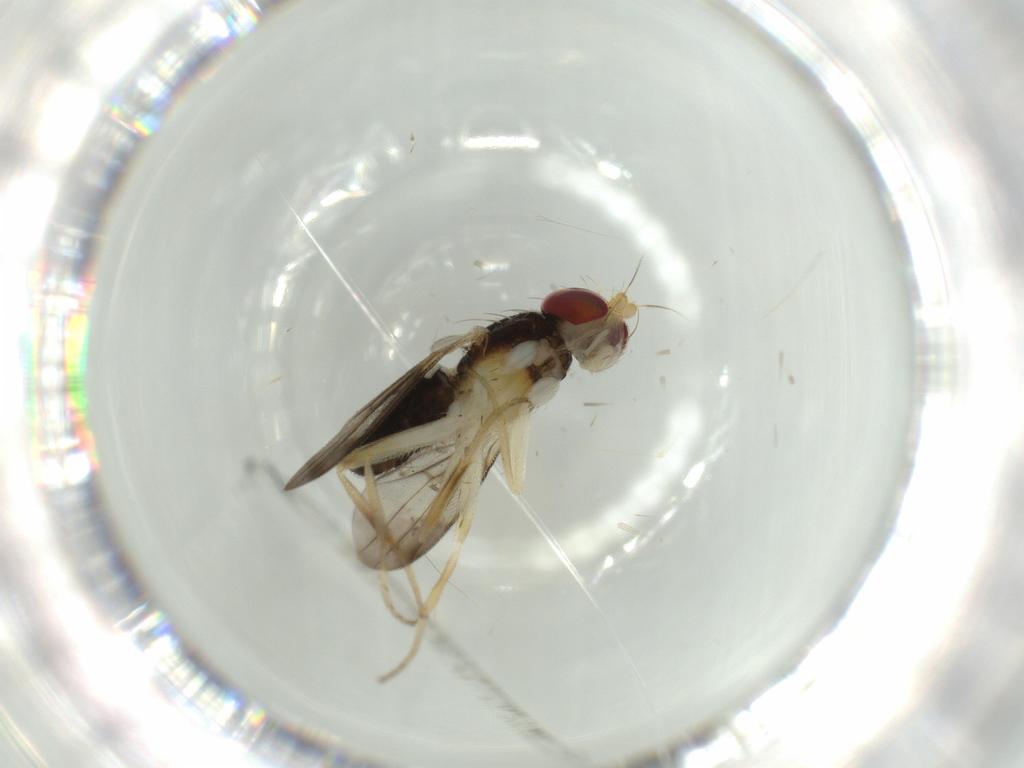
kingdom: Animalia
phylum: Arthropoda
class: Insecta
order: Diptera
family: Clusiidae
